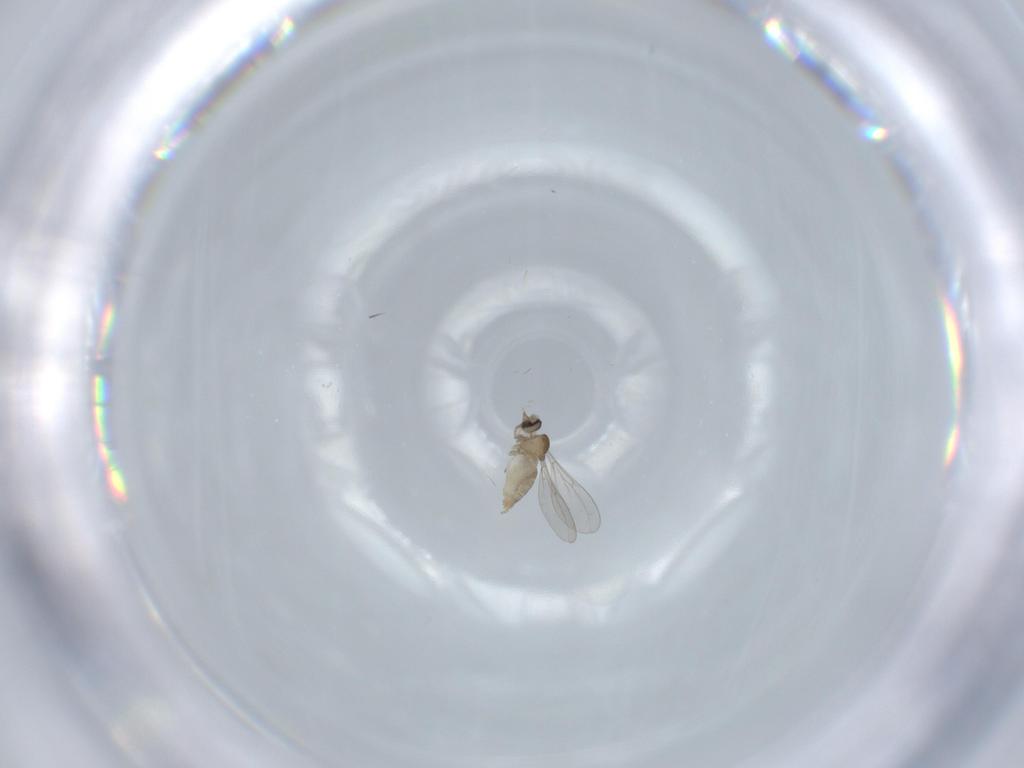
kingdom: Animalia
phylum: Arthropoda
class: Insecta
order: Diptera
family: Cecidomyiidae
